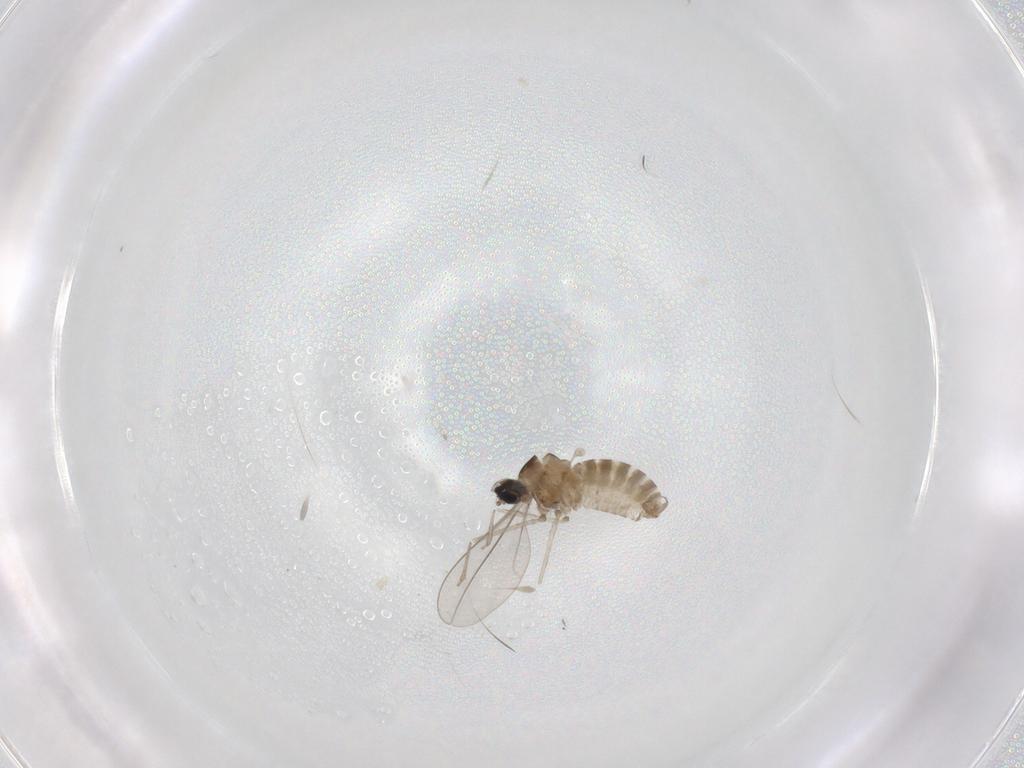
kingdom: Animalia
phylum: Arthropoda
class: Insecta
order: Diptera
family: Chironomidae
